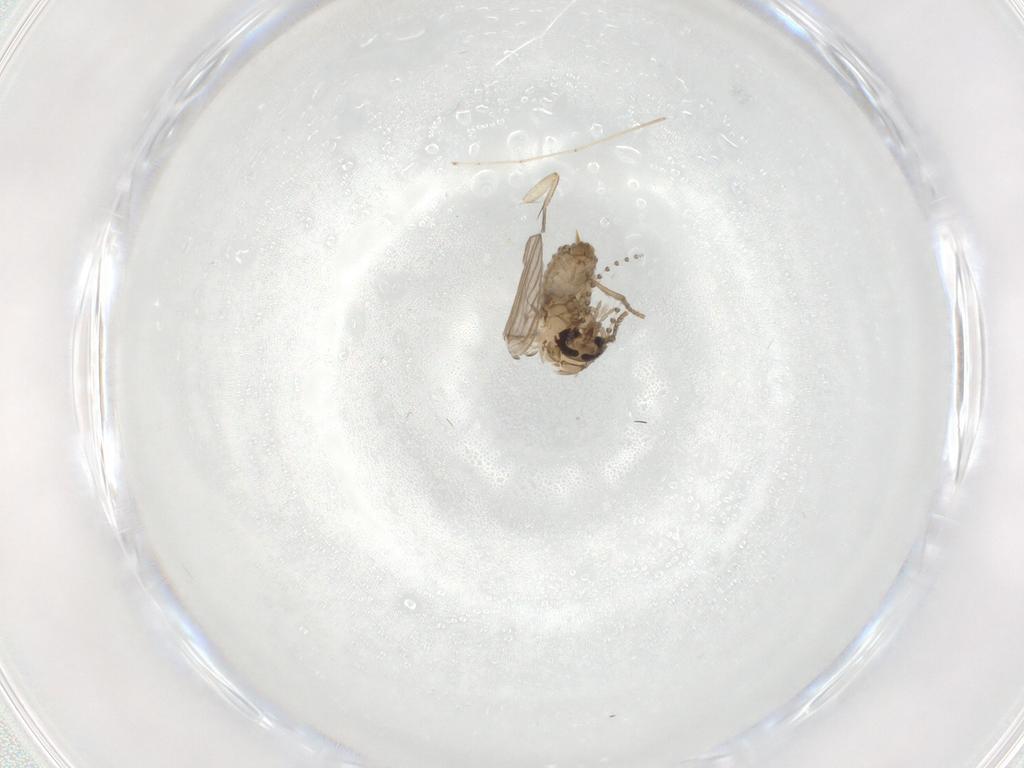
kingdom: Animalia
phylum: Arthropoda
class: Insecta
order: Diptera
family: Psychodidae
